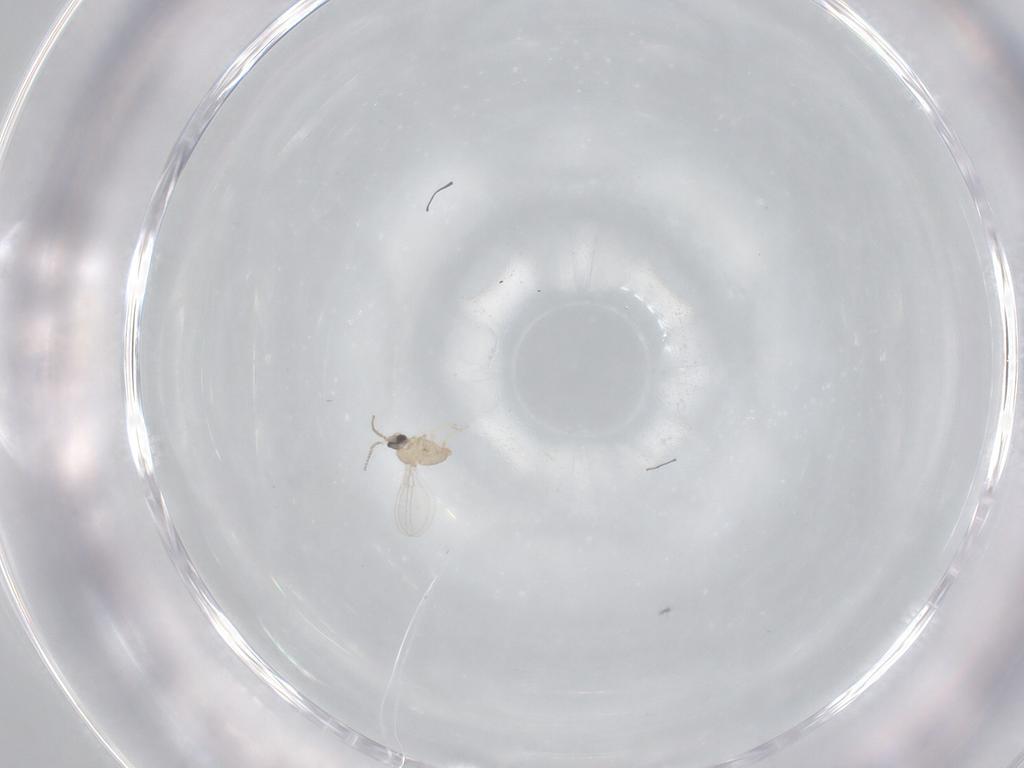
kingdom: Animalia
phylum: Arthropoda
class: Insecta
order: Diptera
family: Cecidomyiidae
